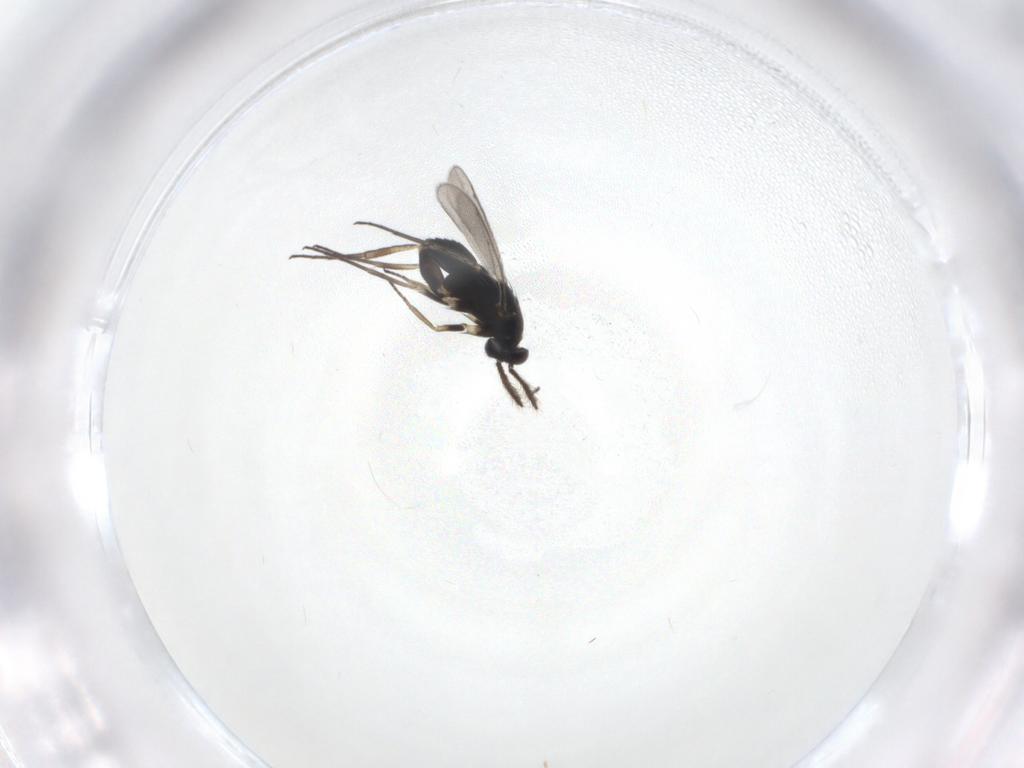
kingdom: Animalia
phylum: Arthropoda
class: Insecta
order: Hymenoptera
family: Eulophidae
